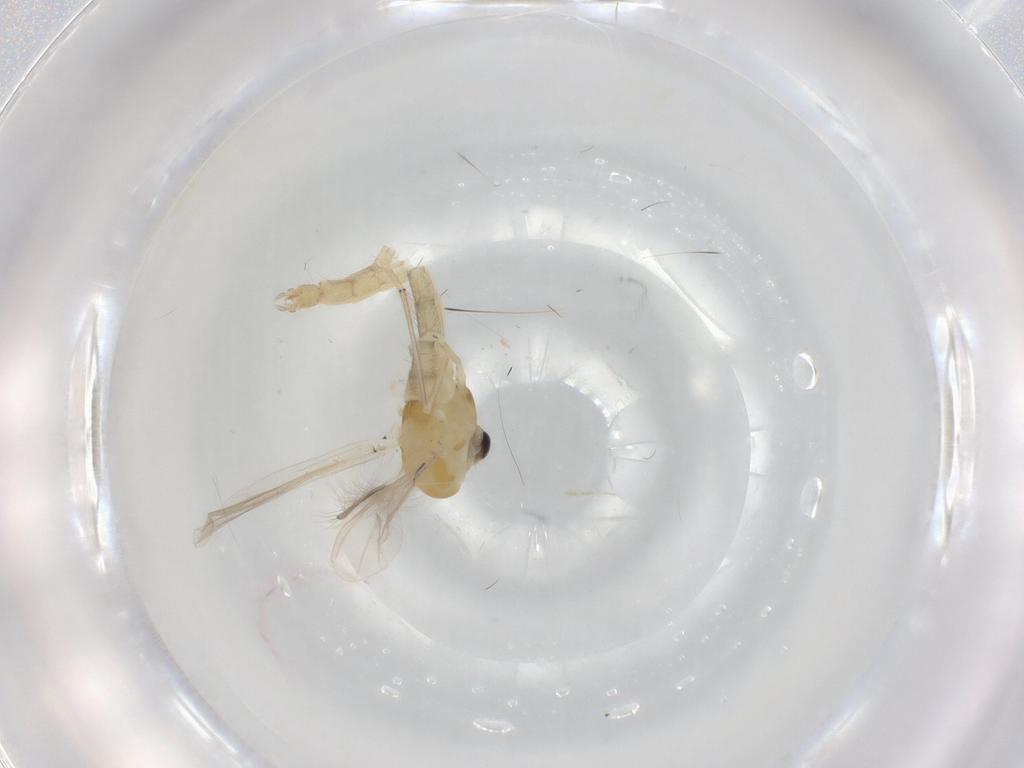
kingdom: Animalia
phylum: Arthropoda
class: Insecta
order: Diptera
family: Chironomidae
